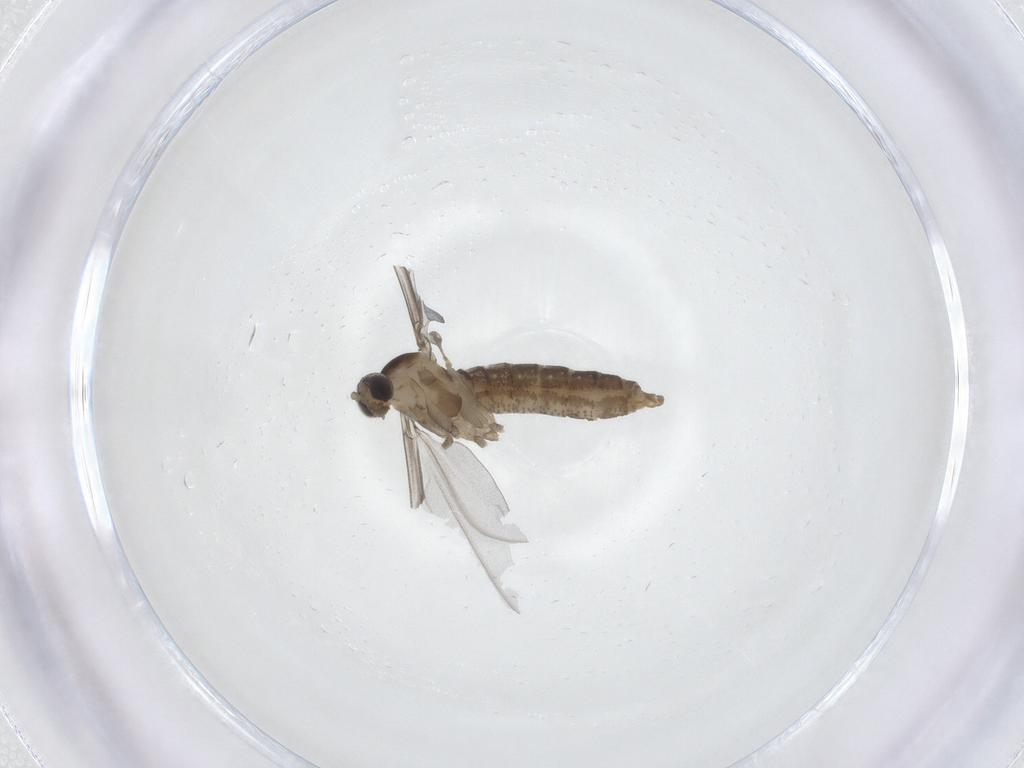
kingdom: Animalia
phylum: Arthropoda
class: Insecta
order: Diptera
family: Cecidomyiidae
